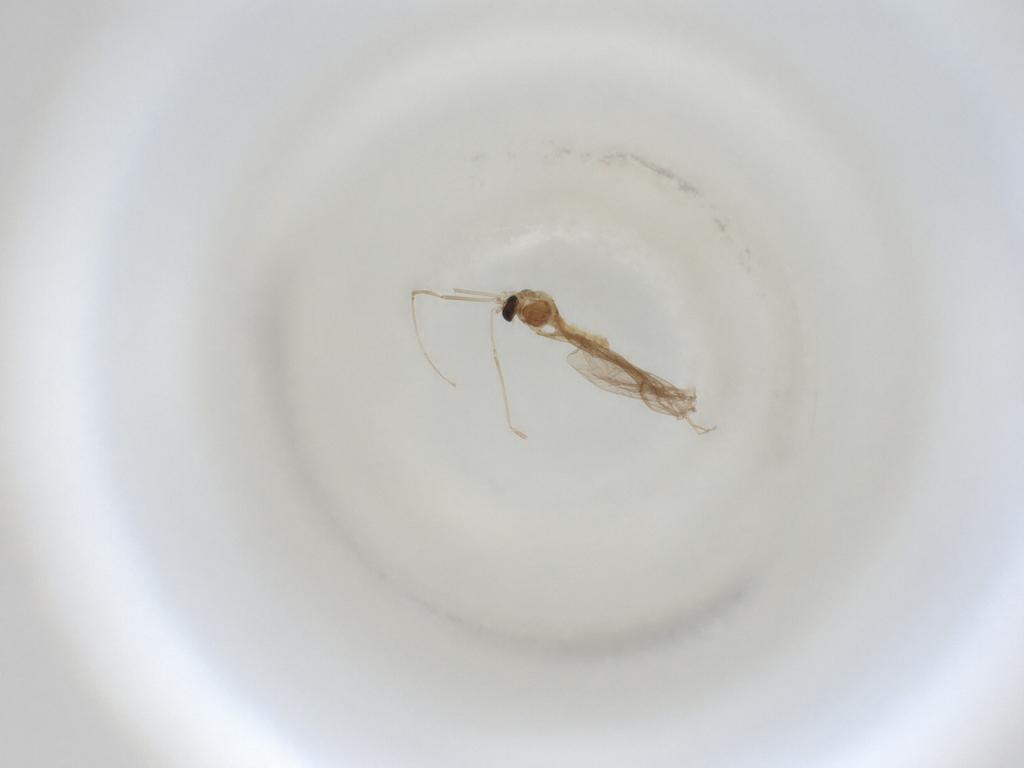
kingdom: Animalia
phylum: Arthropoda
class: Insecta
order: Diptera
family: Cecidomyiidae
